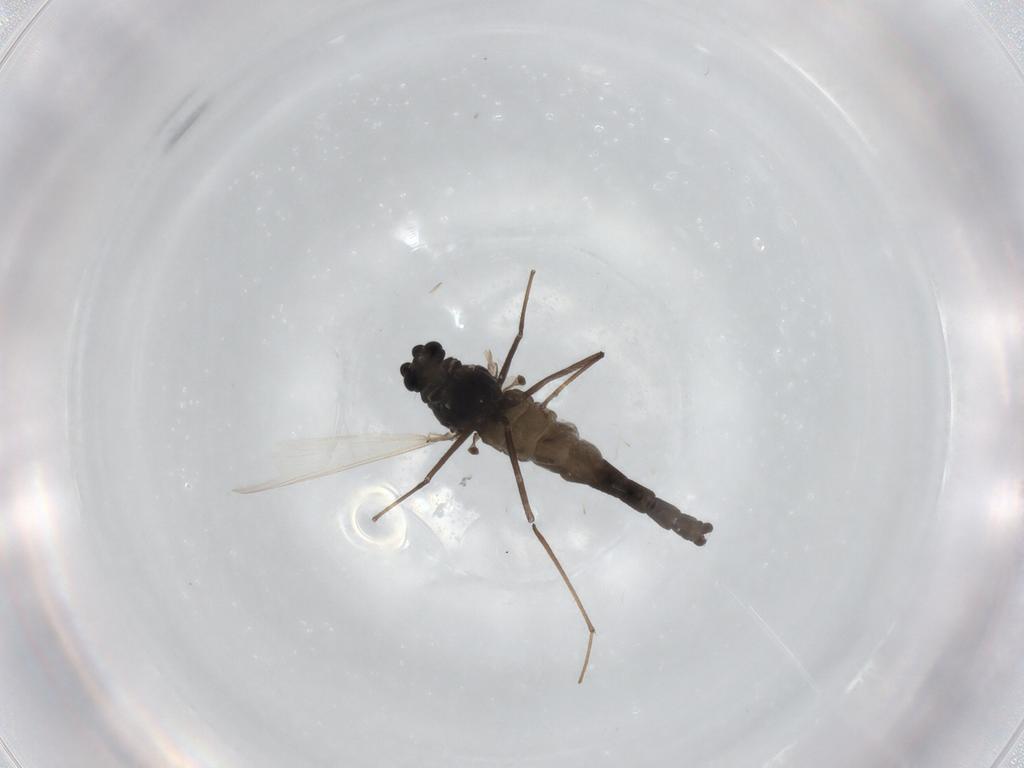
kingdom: Animalia
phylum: Arthropoda
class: Insecta
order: Diptera
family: Chironomidae
